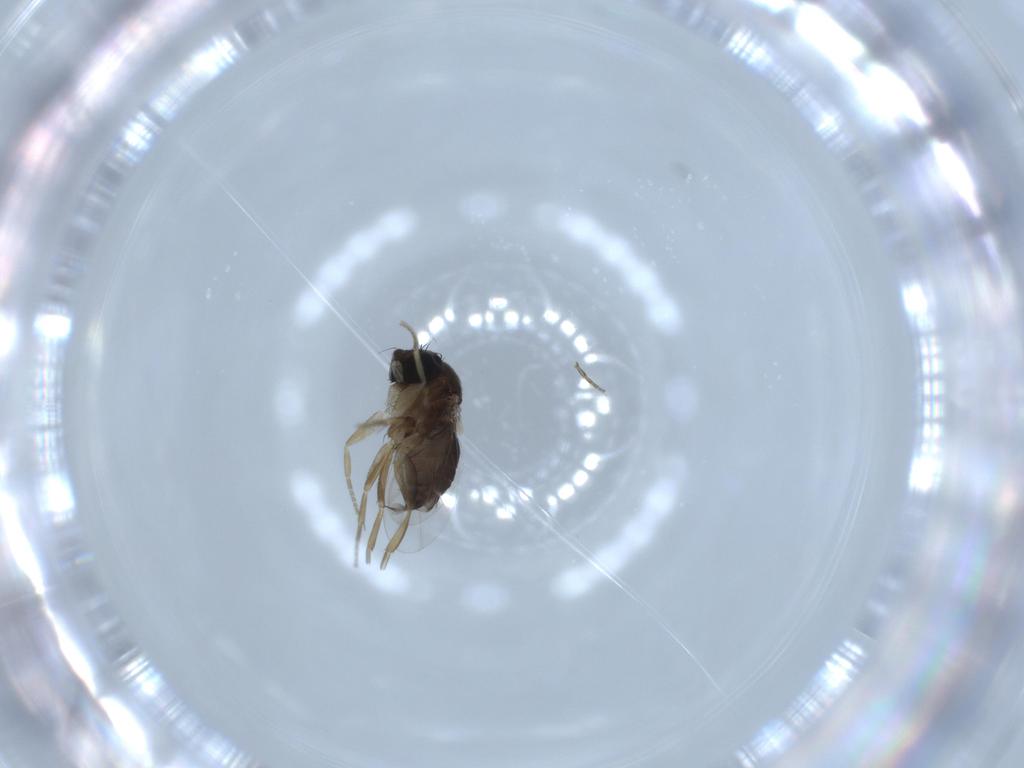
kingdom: Animalia
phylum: Arthropoda
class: Insecta
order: Diptera
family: Phoridae
